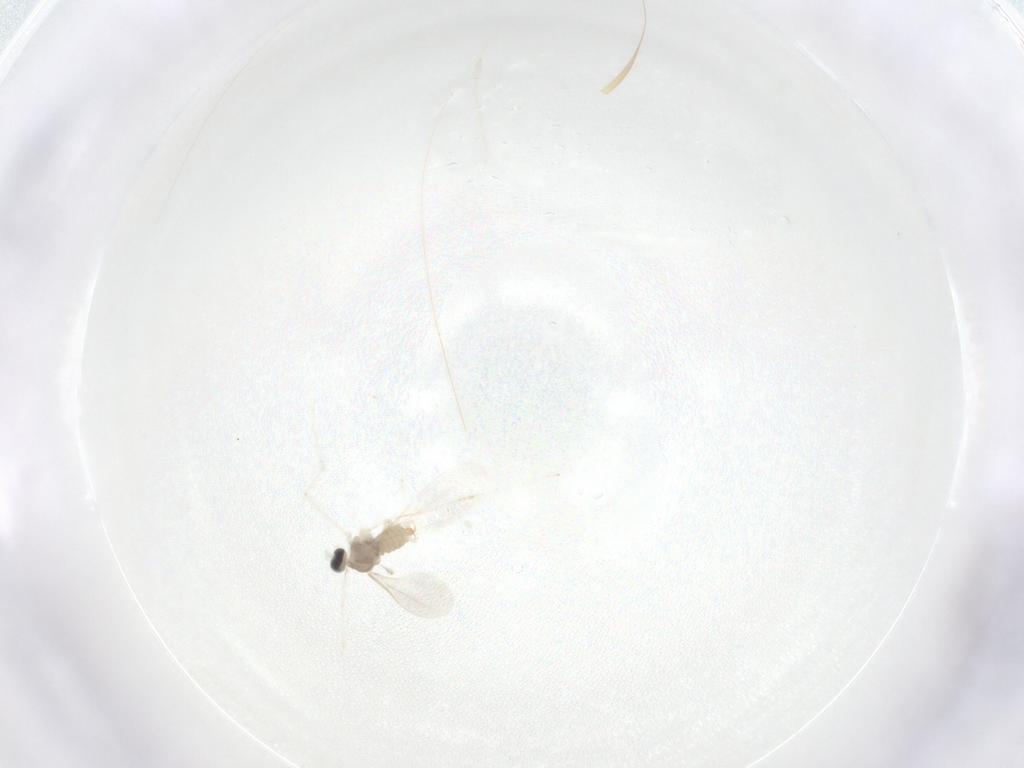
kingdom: Animalia
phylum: Arthropoda
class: Insecta
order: Diptera
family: Cecidomyiidae
